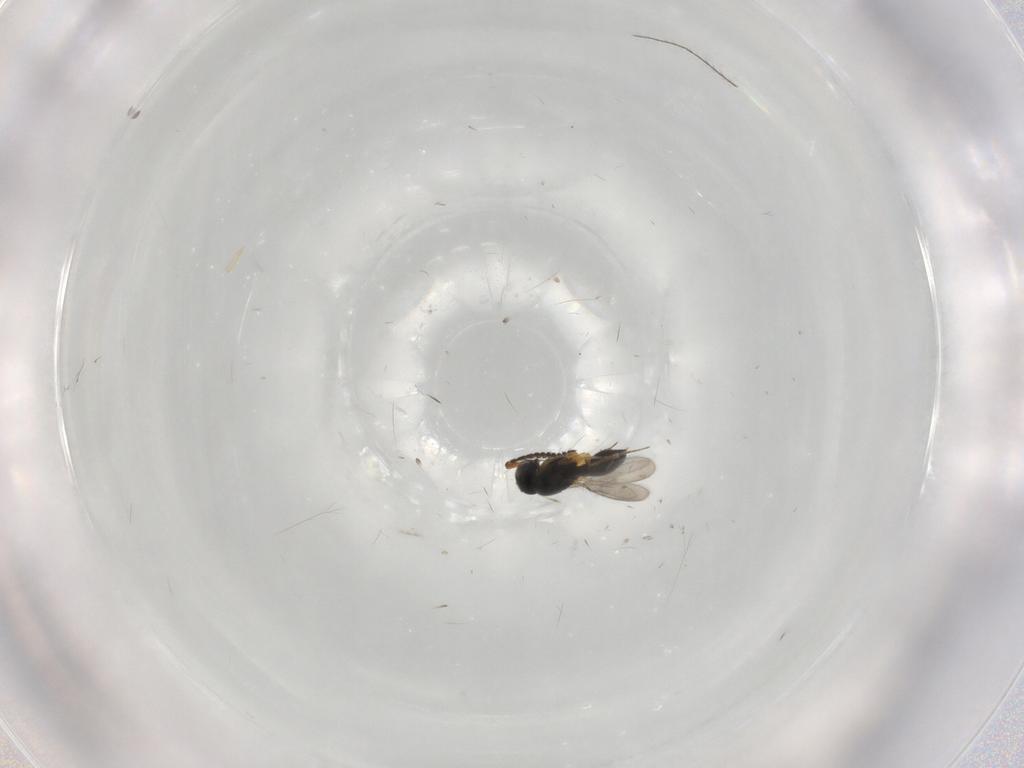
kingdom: Animalia
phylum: Arthropoda
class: Insecta
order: Hymenoptera
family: Scelionidae
